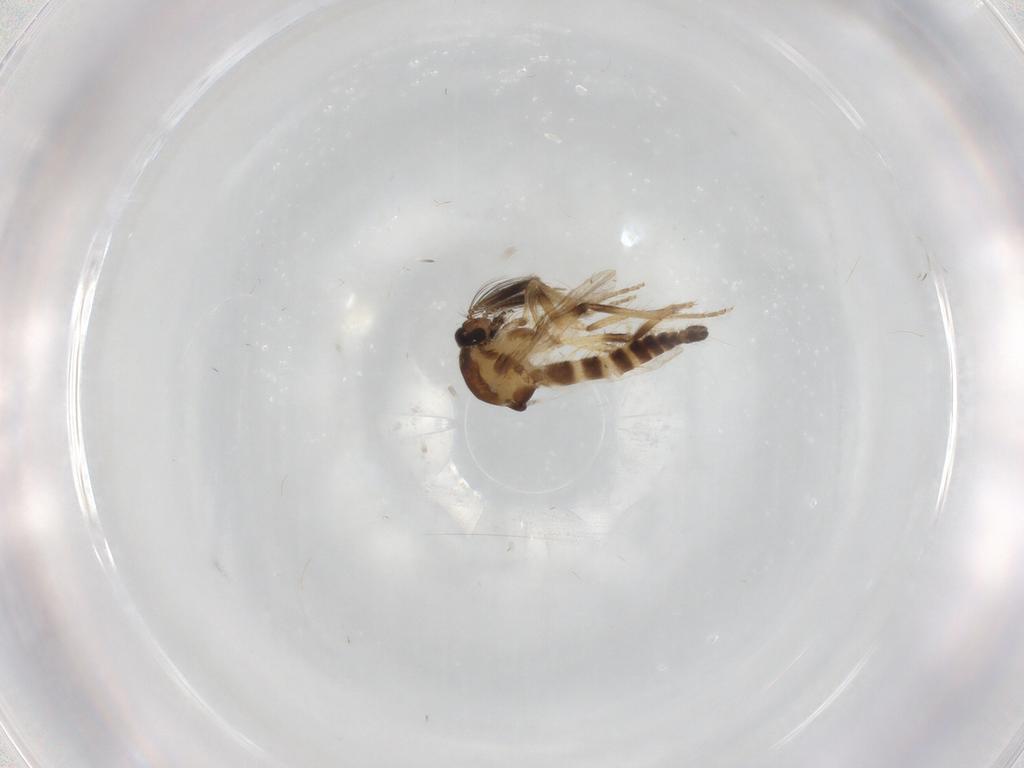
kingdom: Animalia
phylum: Arthropoda
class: Insecta
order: Diptera
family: Ceratopogonidae
